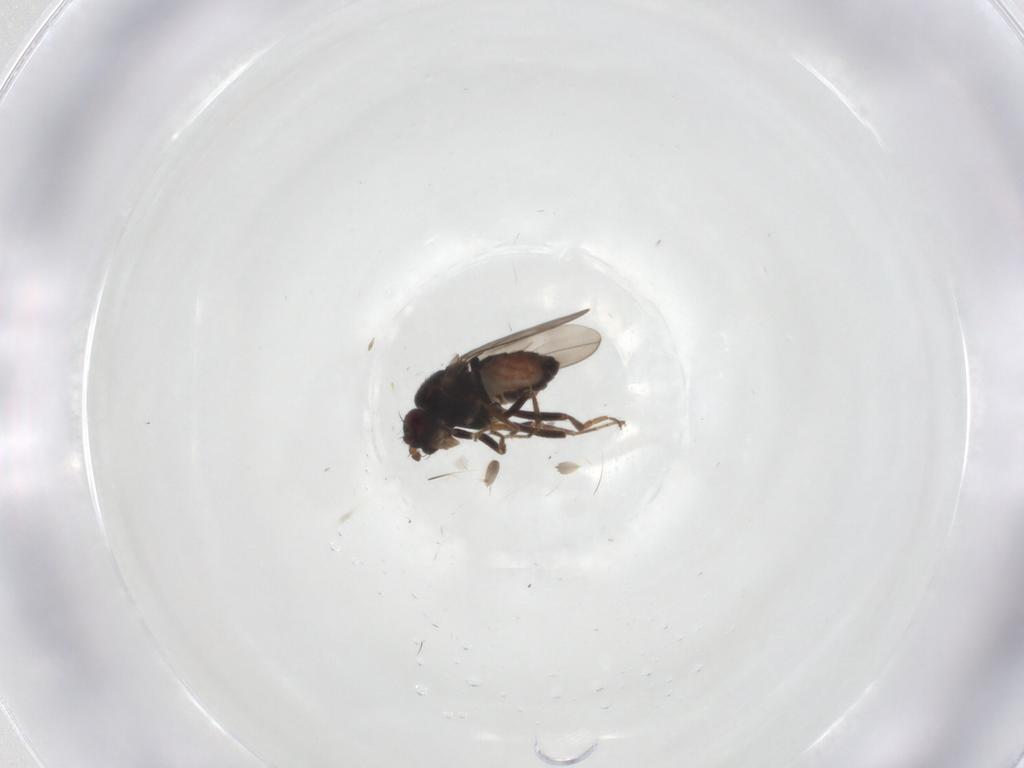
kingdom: Animalia
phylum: Arthropoda
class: Insecta
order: Diptera
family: Sphaeroceridae
